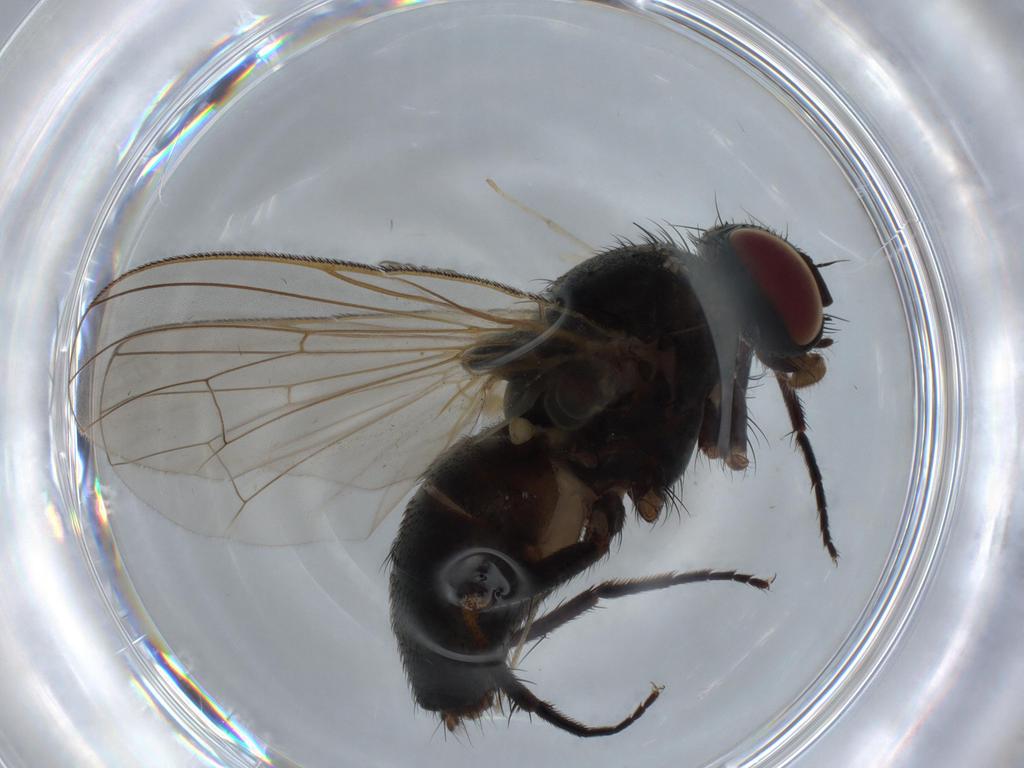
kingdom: Animalia
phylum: Arthropoda
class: Insecta
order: Diptera
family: Fannia
